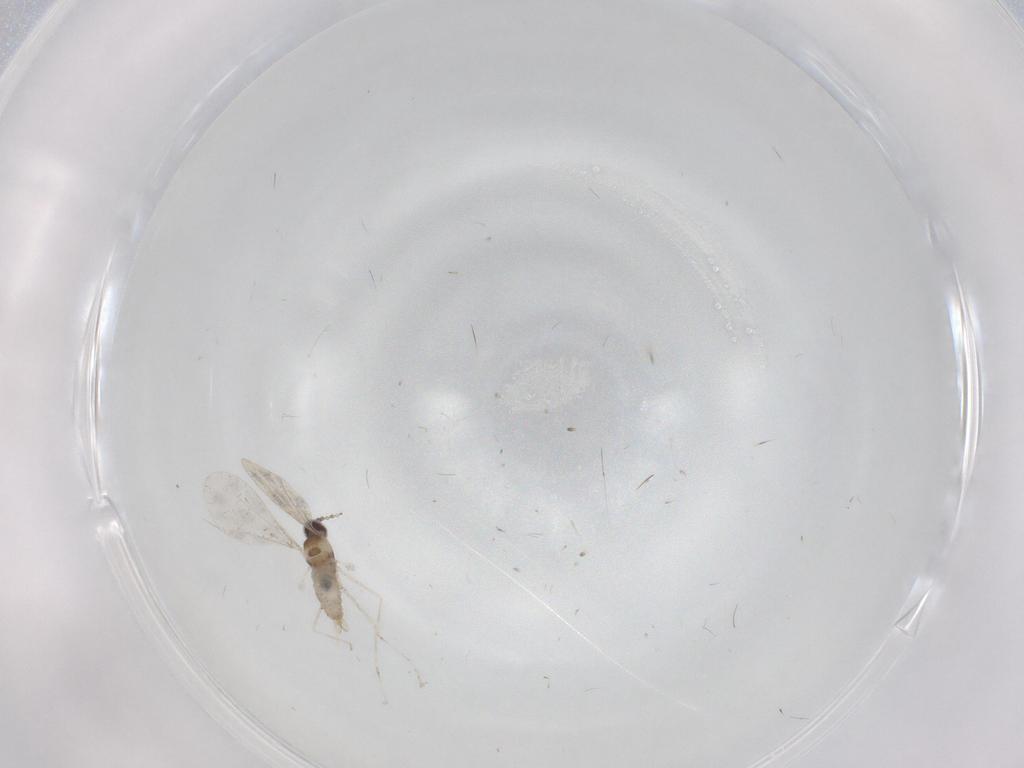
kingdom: Animalia
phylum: Arthropoda
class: Insecta
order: Diptera
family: Cecidomyiidae
